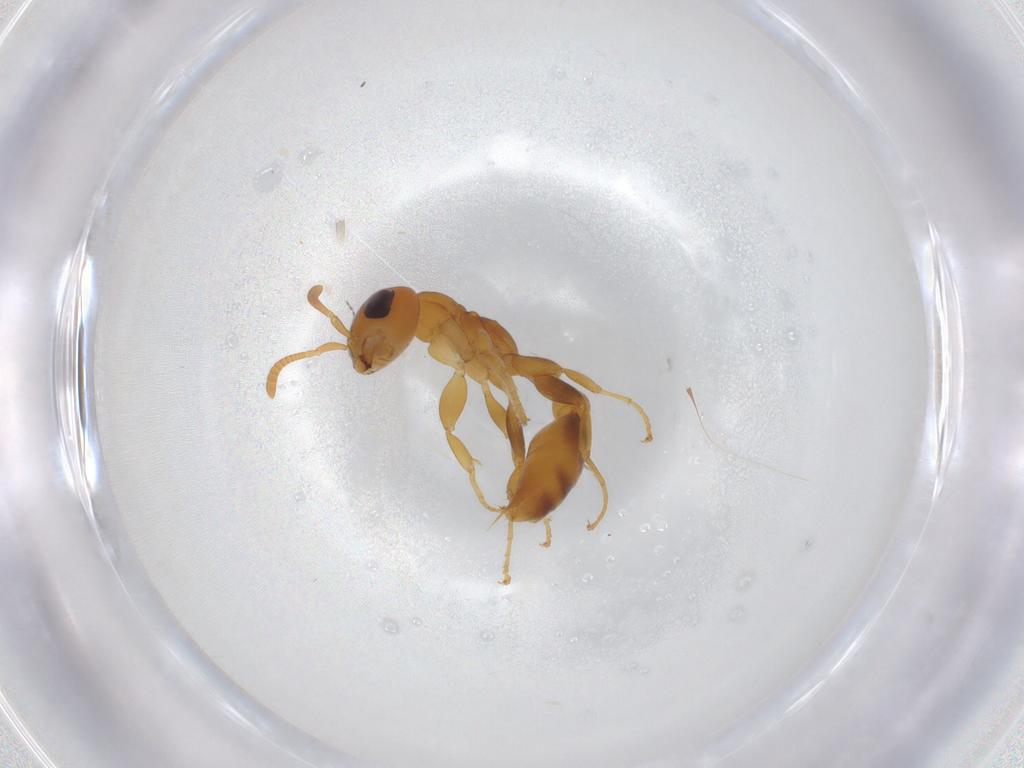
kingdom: Animalia
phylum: Arthropoda
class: Insecta
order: Hymenoptera
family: Formicidae
